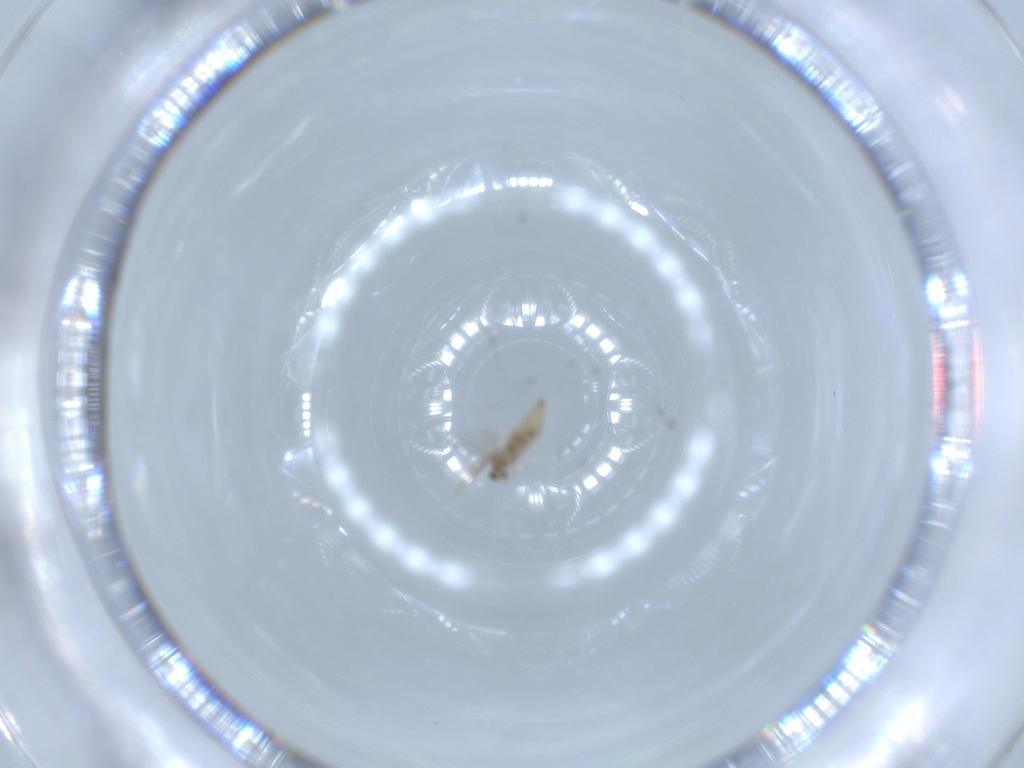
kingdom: Animalia
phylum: Arthropoda
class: Insecta
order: Diptera
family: Cecidomyiidae
